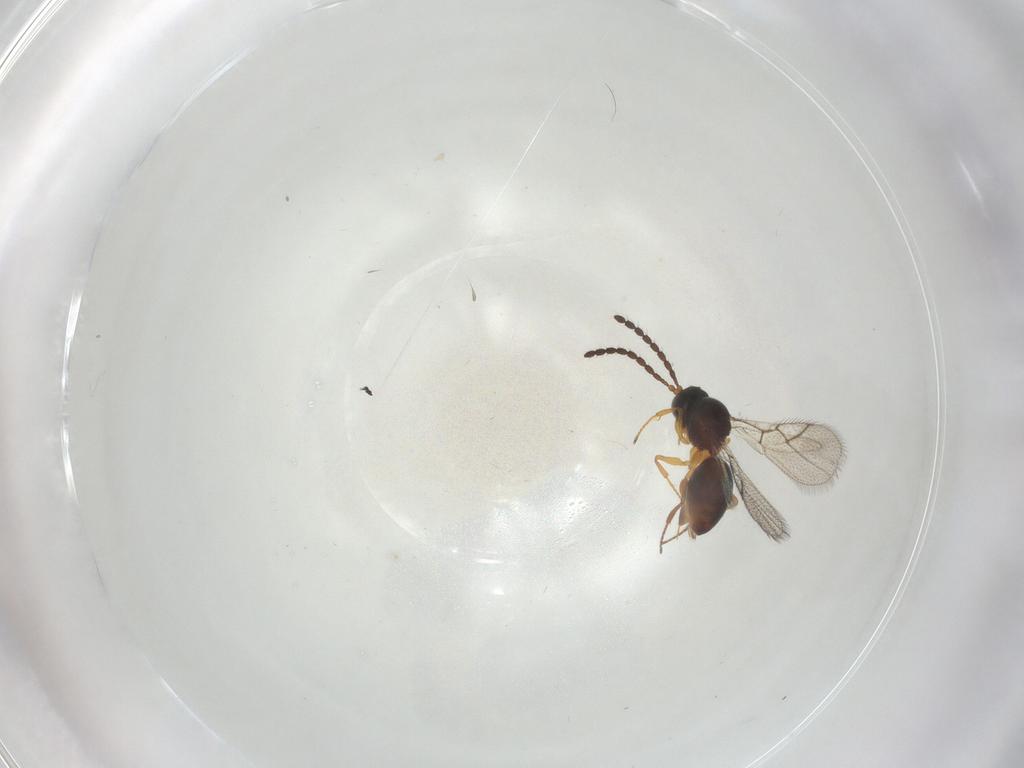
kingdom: Animalia
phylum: Arthropoda
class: Insecta
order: Hymenoptera
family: Figitidae
